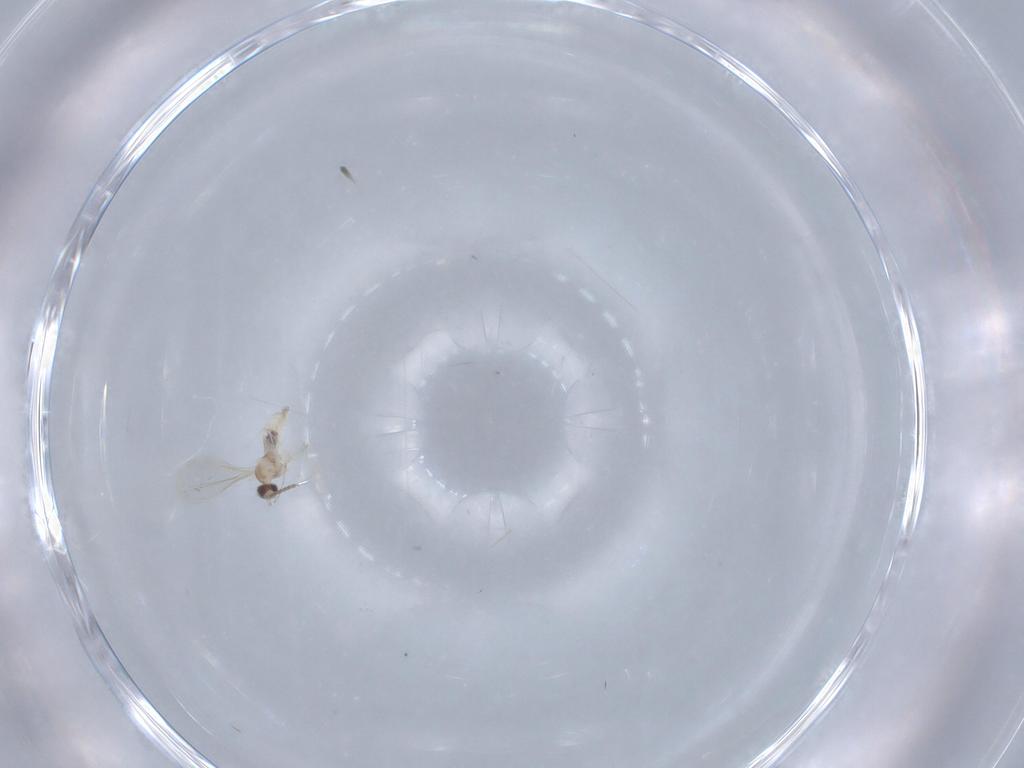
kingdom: Animalia
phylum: Arthropoda
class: Insecta
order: Diptera
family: Cecidomyiidae
